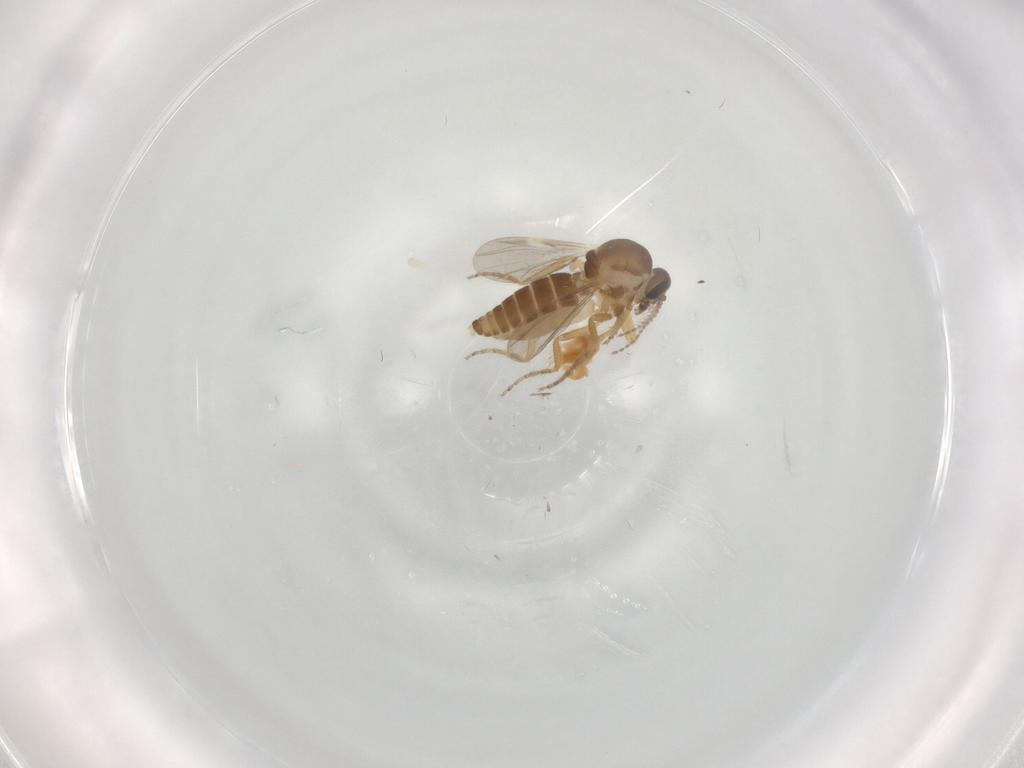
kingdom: Animalia
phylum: Arthropoda
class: Insecta
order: Diptera
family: Ceratopogonidae
